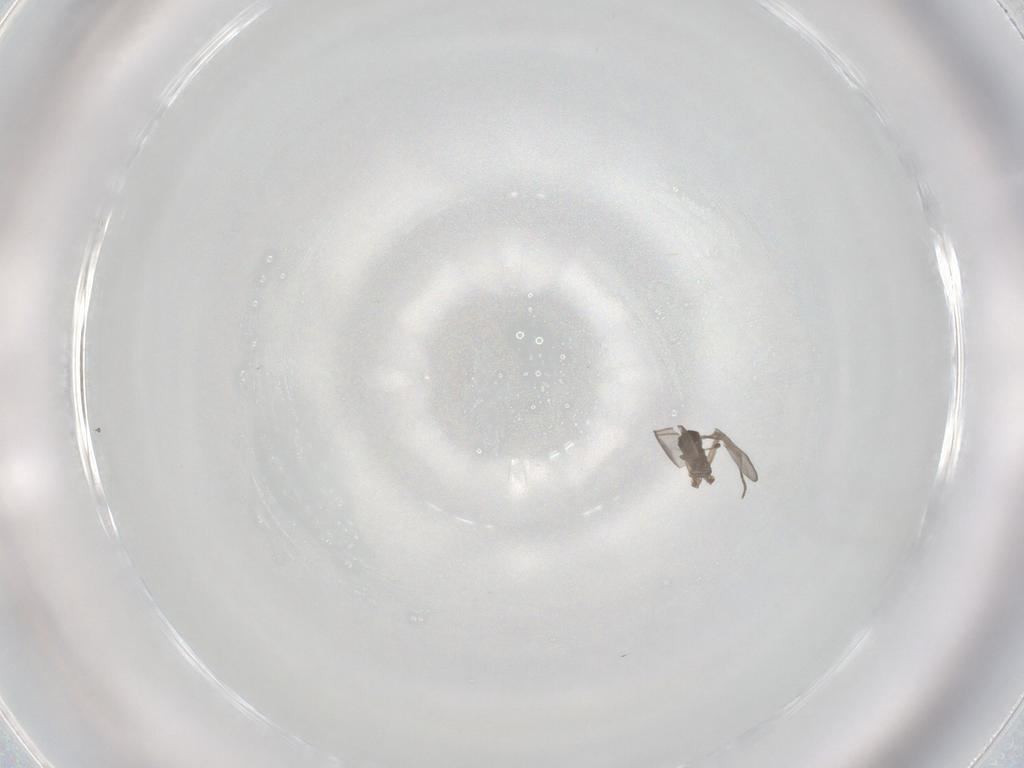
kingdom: Animalia
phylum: Arthropoda
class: Insecta
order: Diptera
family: Sciaridae
